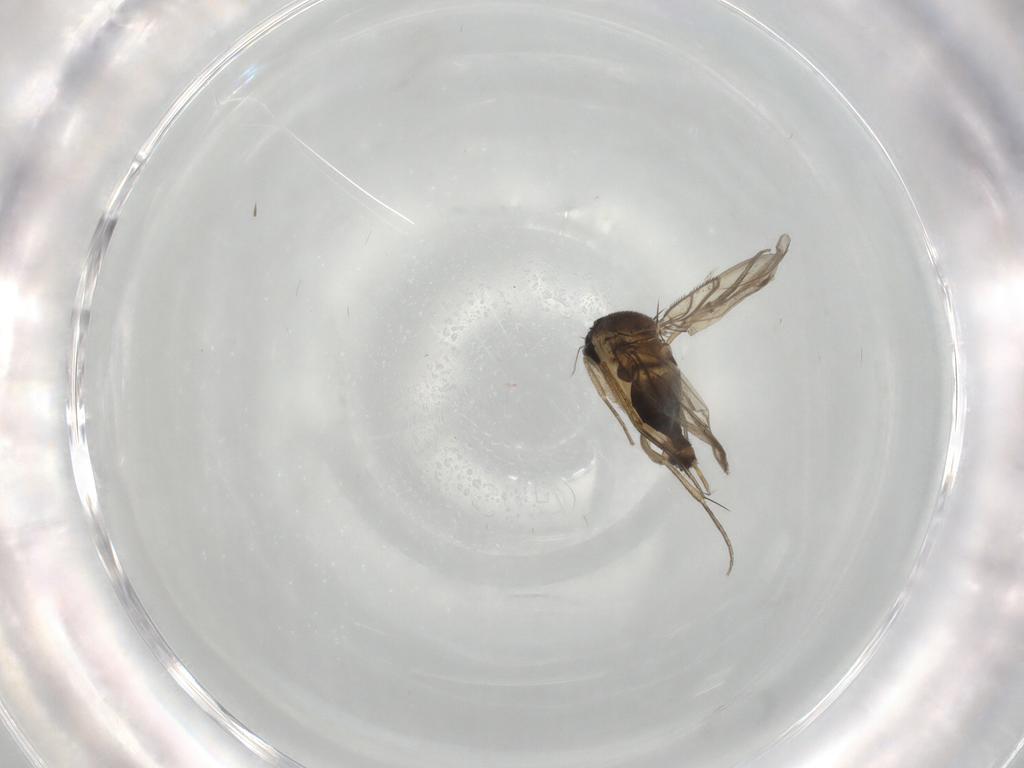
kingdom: Animalia
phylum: Arthropoda
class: Insecta
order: Diptera
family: Phoridae
